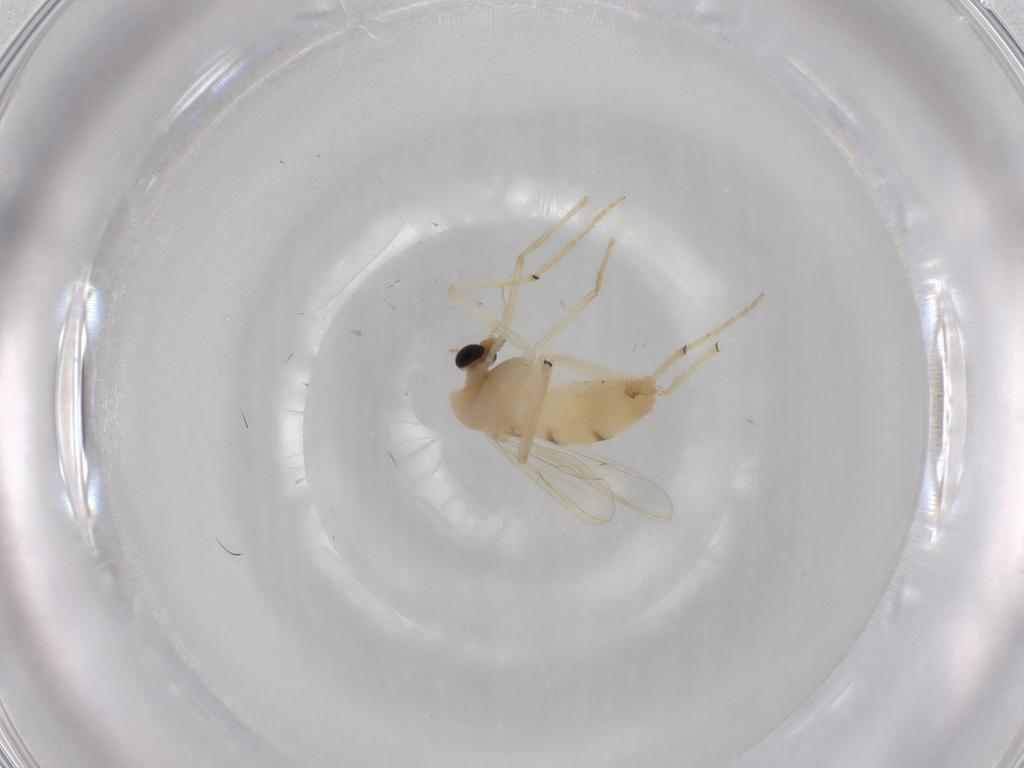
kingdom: Animalia
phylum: Arthropoda
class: Insecta
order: Diptera
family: Chironomidae
